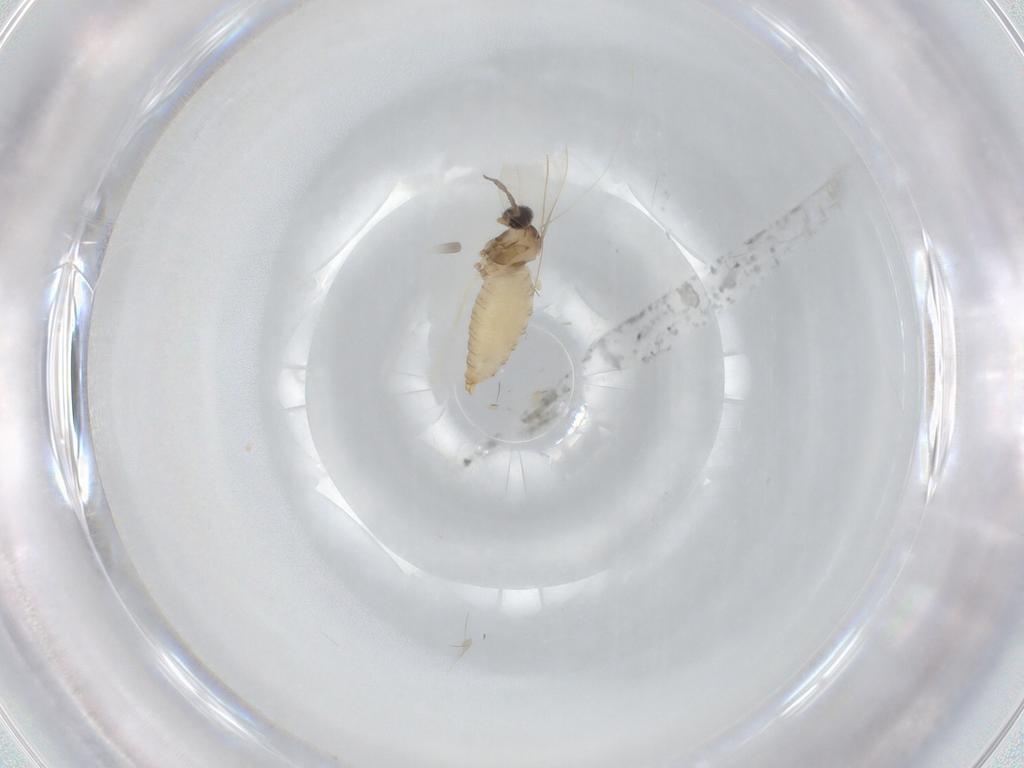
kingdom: Animalia
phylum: Arthropoda
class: Insecta
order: Diptera
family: Cecidomyiidae
